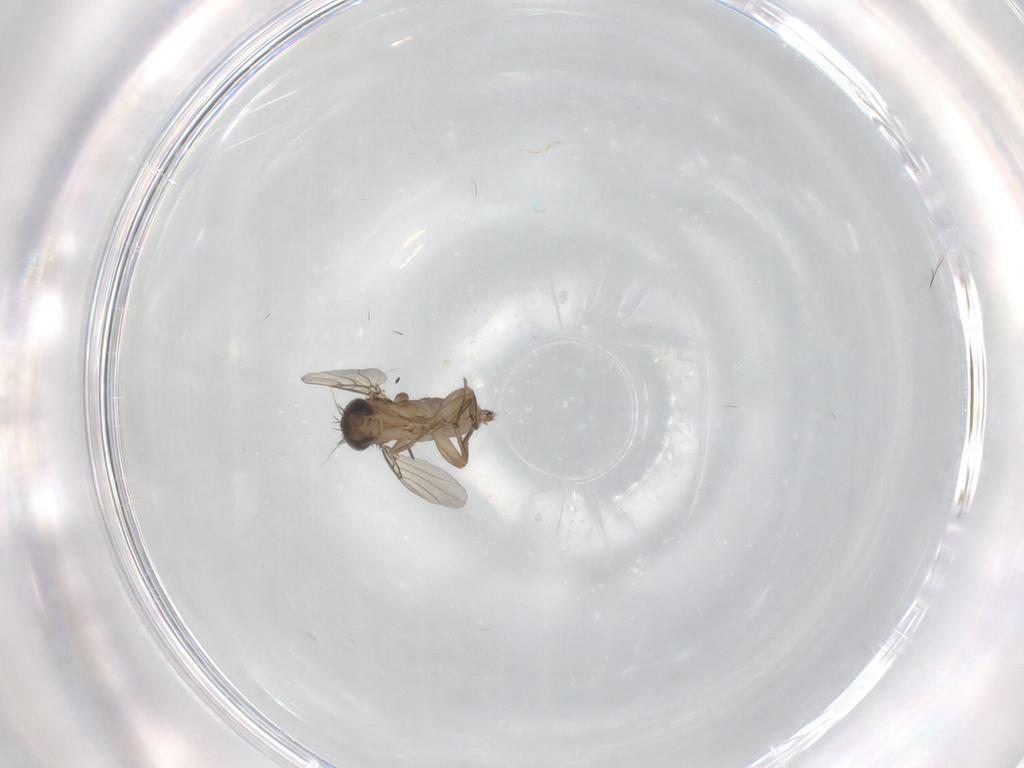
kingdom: Animalia
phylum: Arthropoda
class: Insecta
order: Diptera
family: Phoridae
